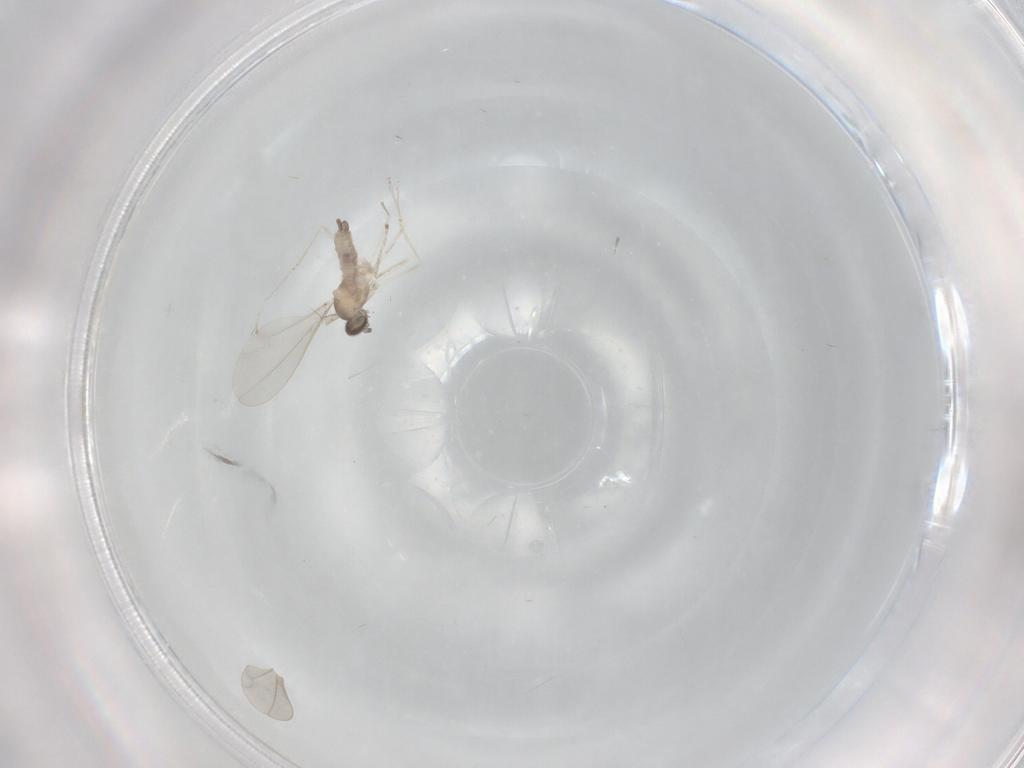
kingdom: Animalia
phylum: Arthropoda
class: Insecta
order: Diptera
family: Cecidomyiidae
